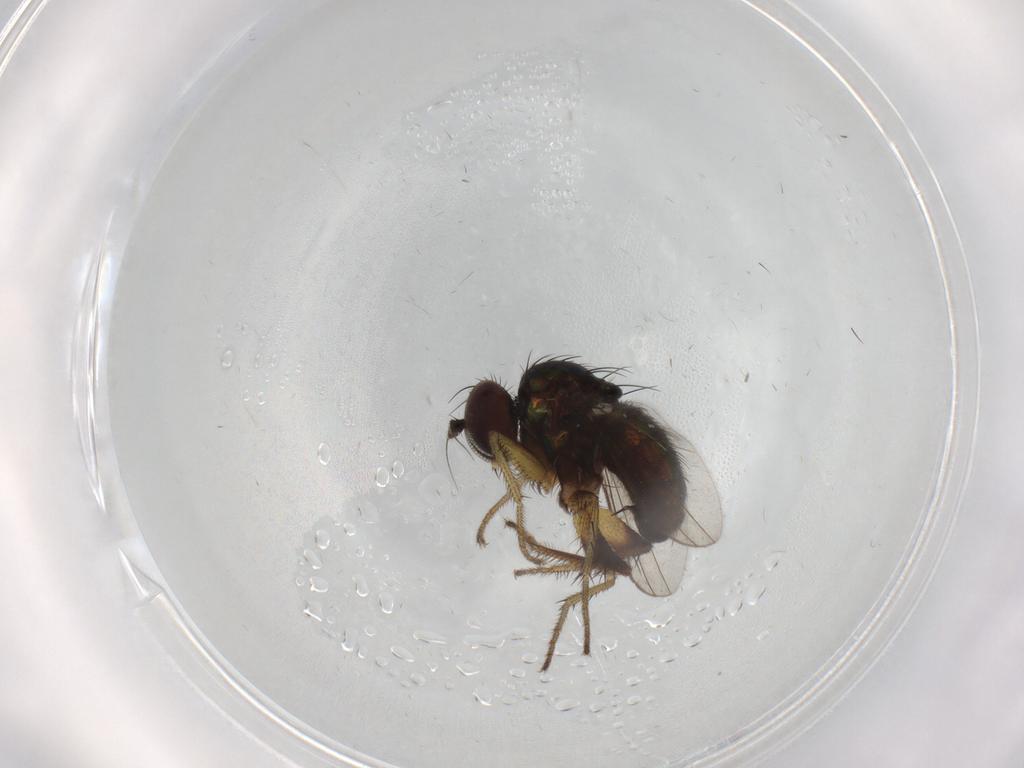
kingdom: Animalia
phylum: Arthropoda
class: Insecta
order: Diptera
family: Dolichopodidae
